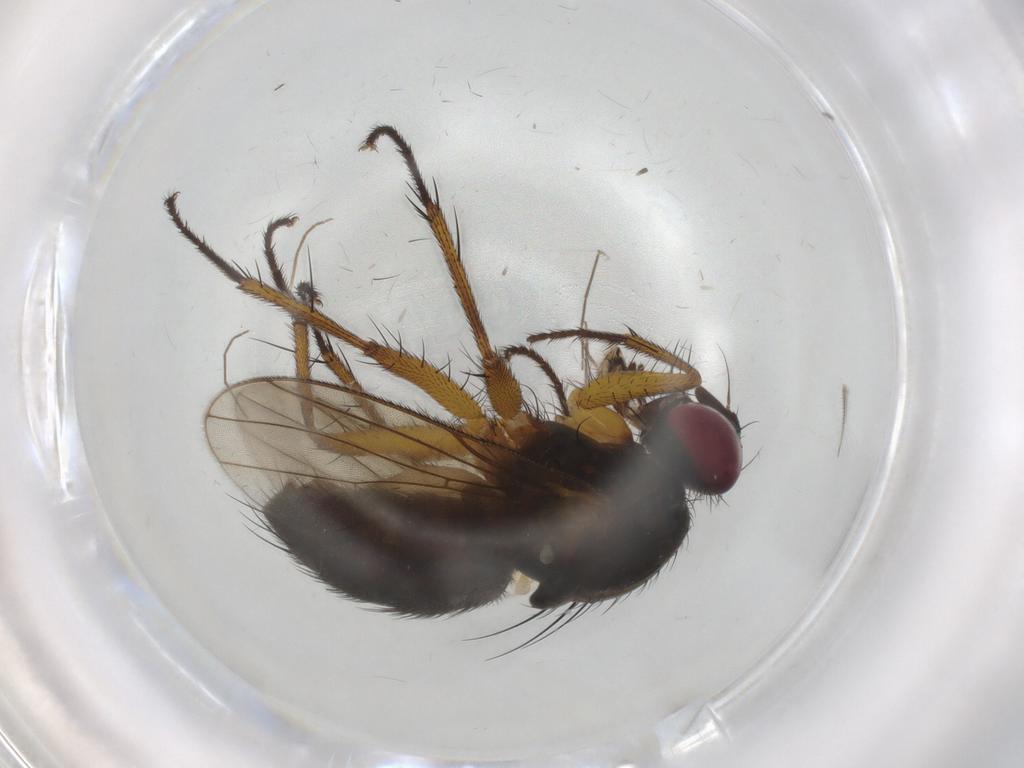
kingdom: Animalia
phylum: Arthropoda
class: Insecta
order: Diptera
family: Muscidae
